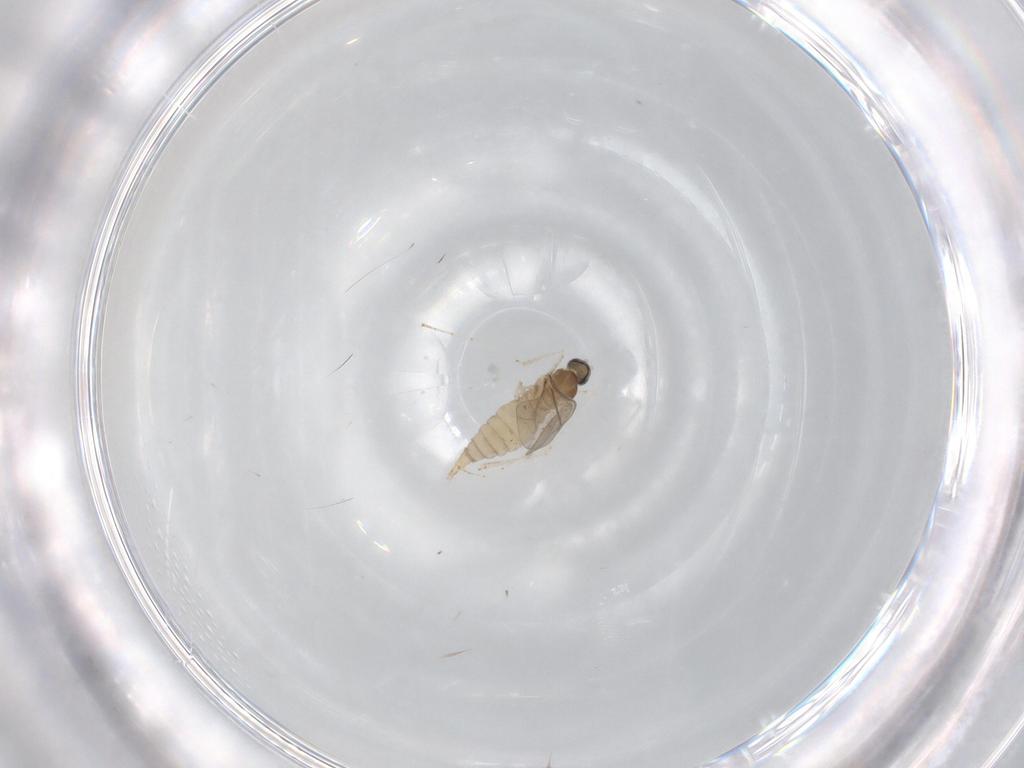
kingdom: Animalia
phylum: Arthropoda
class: Insecta
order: Diptera
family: Cecidomyiidae
